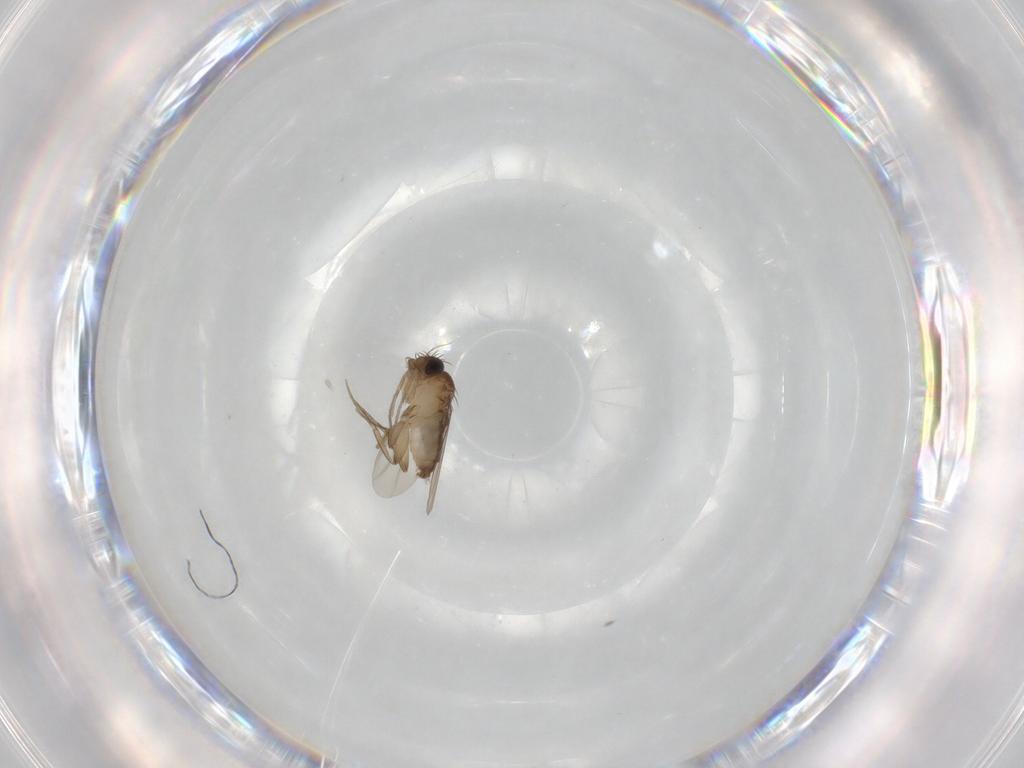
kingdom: Animalia
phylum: Arthropoda
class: Insecta
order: Diptera
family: Phoridae
